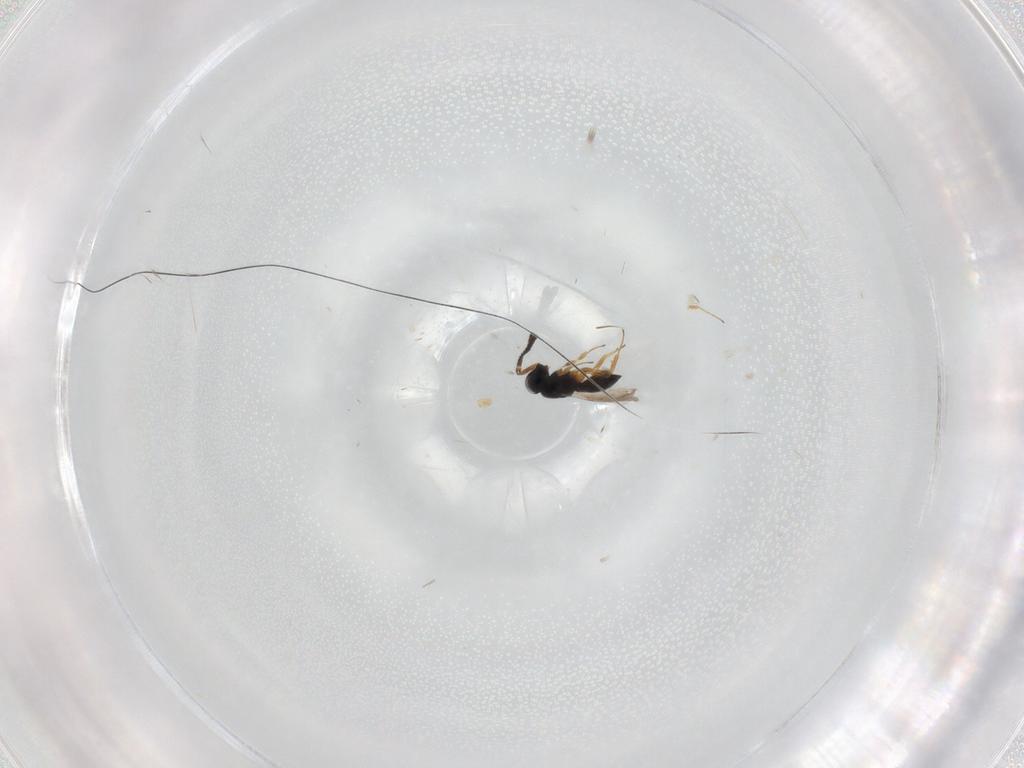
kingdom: Animalia
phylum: Arthropoda
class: Insecta
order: Hymenoptera
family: Scelionidae
